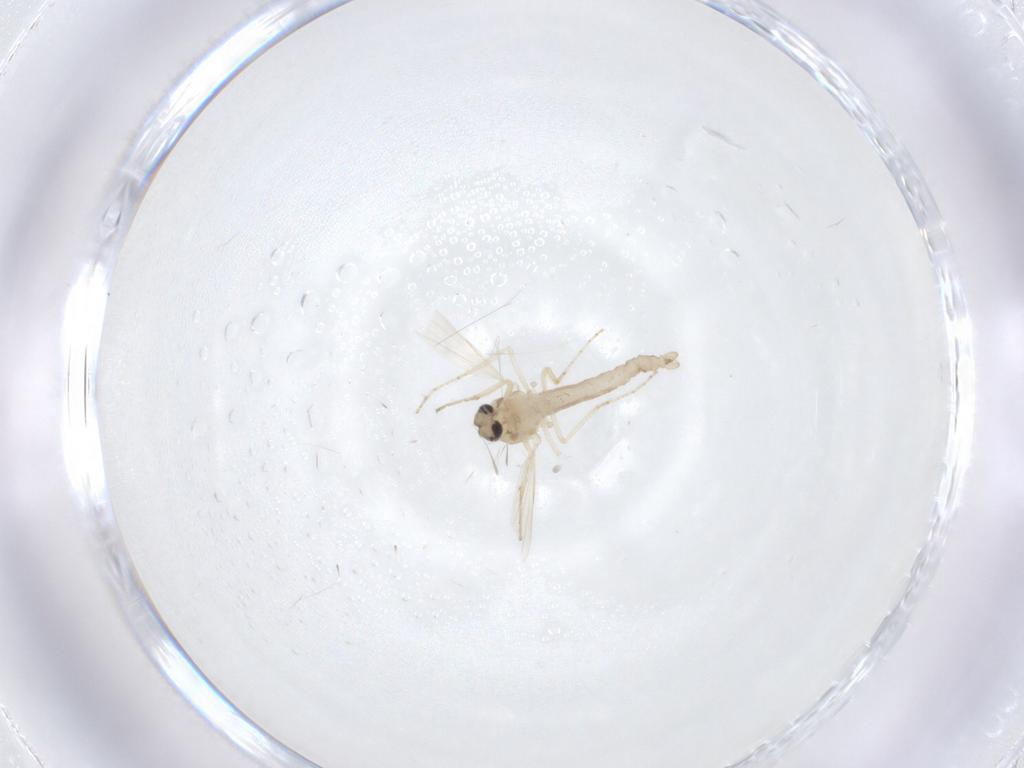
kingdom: Animalia
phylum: Arthropoda
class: Insecta
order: Diptera
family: Ceratopogonidae
